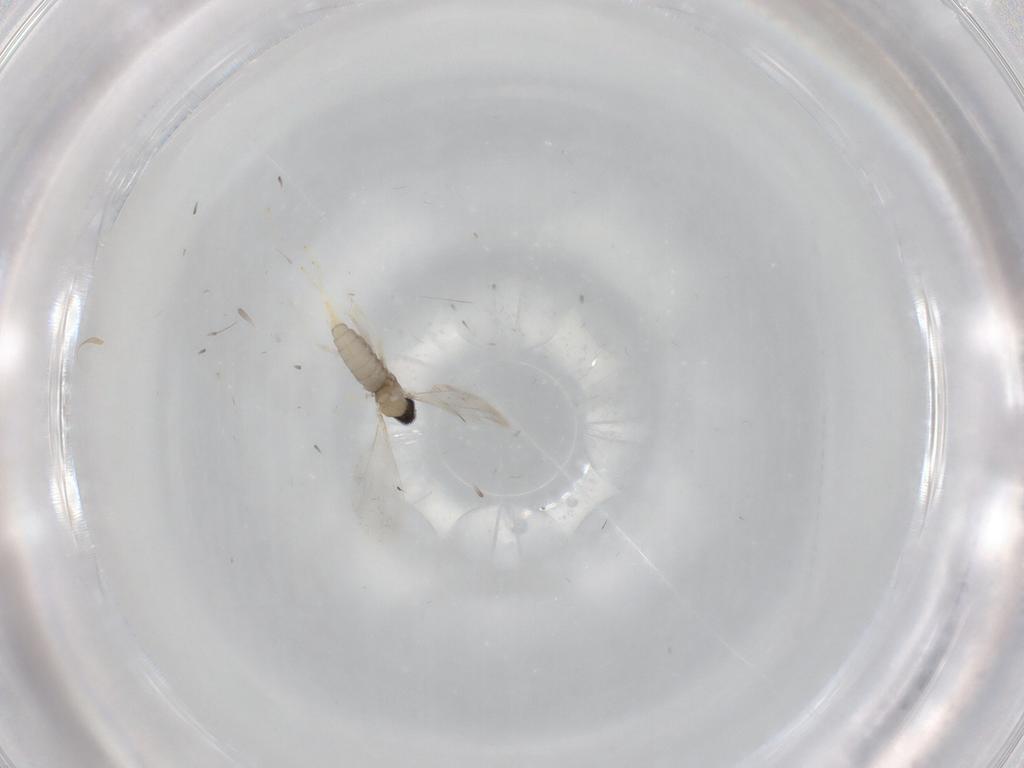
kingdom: Animalia
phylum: Arthropoda
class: Insecta
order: Diptera
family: Cecidomyiidae
